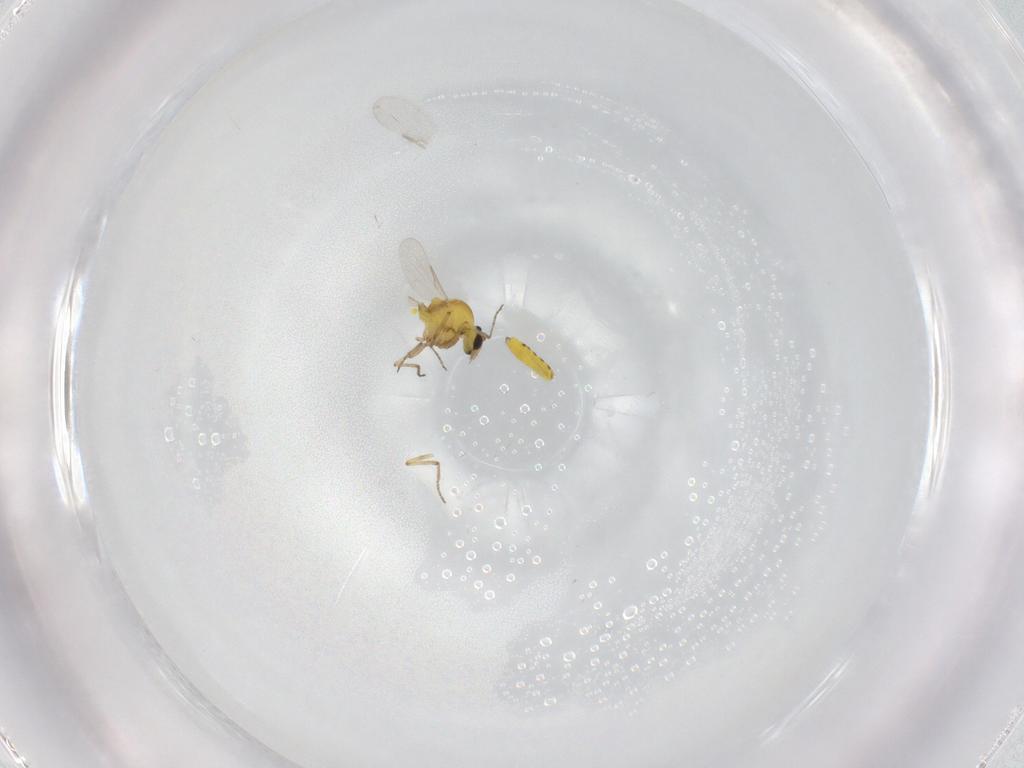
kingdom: Animalia
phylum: Arthropoda
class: Insecta
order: Diptera
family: Ceratopogonidae
